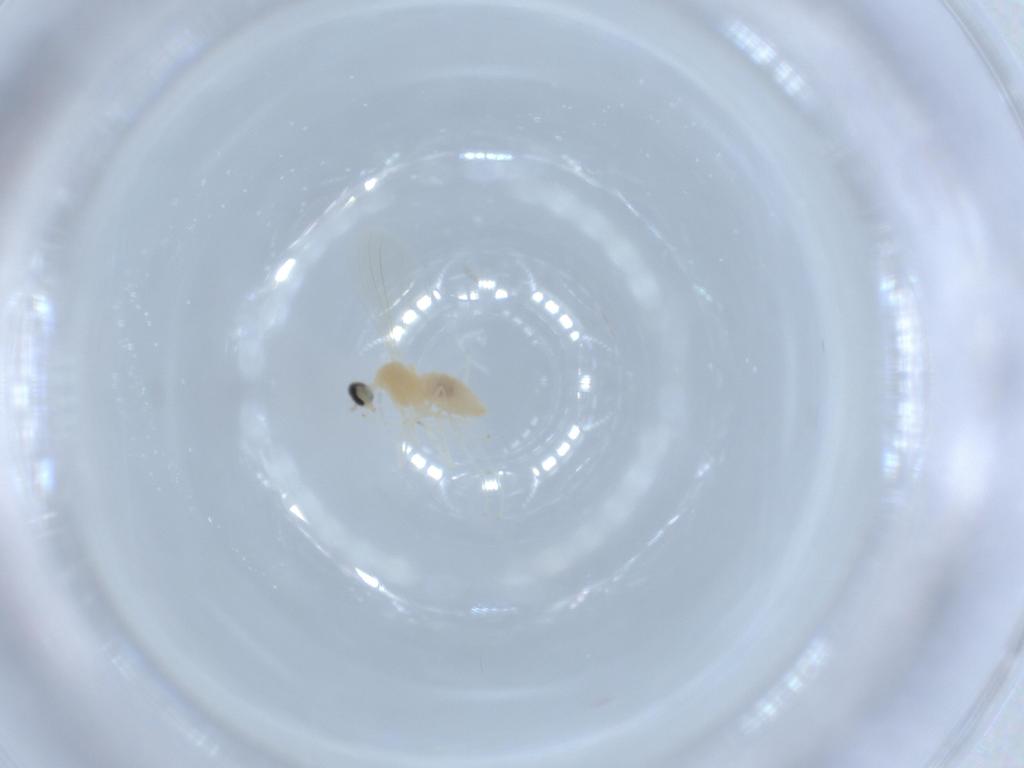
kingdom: Animalia
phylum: Arthropoda
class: Insecta
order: Diptera
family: Cecidomyiidae
